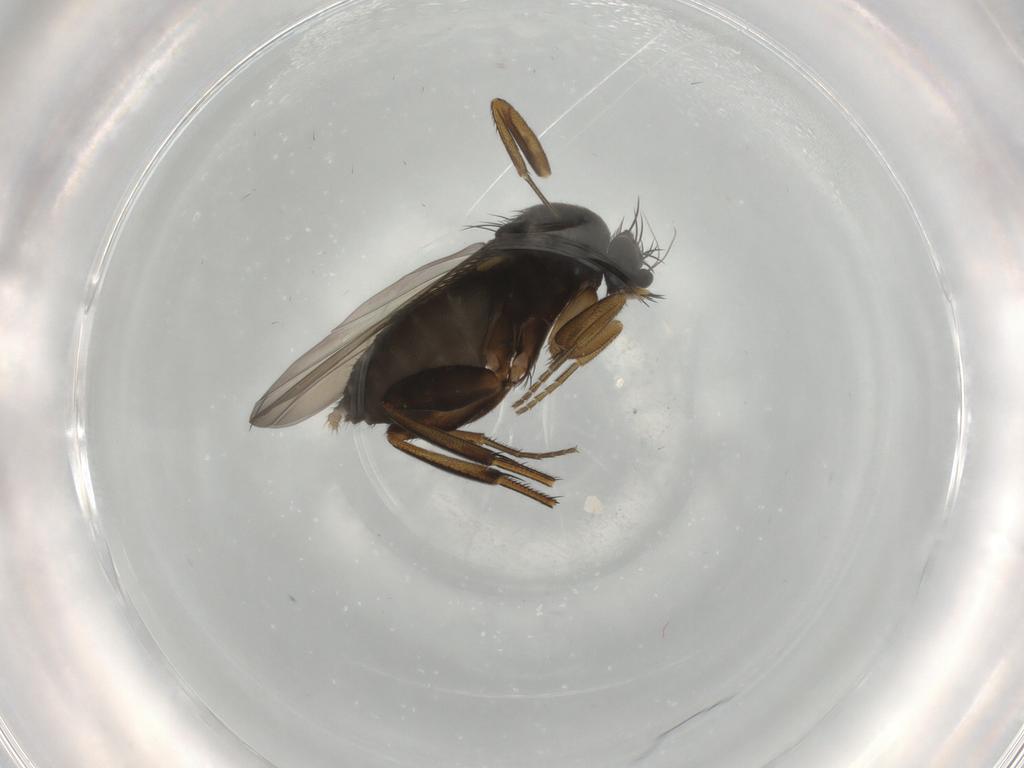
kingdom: Animalia
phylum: Arthropoda
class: Insecta
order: Diptera
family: Phoridae
